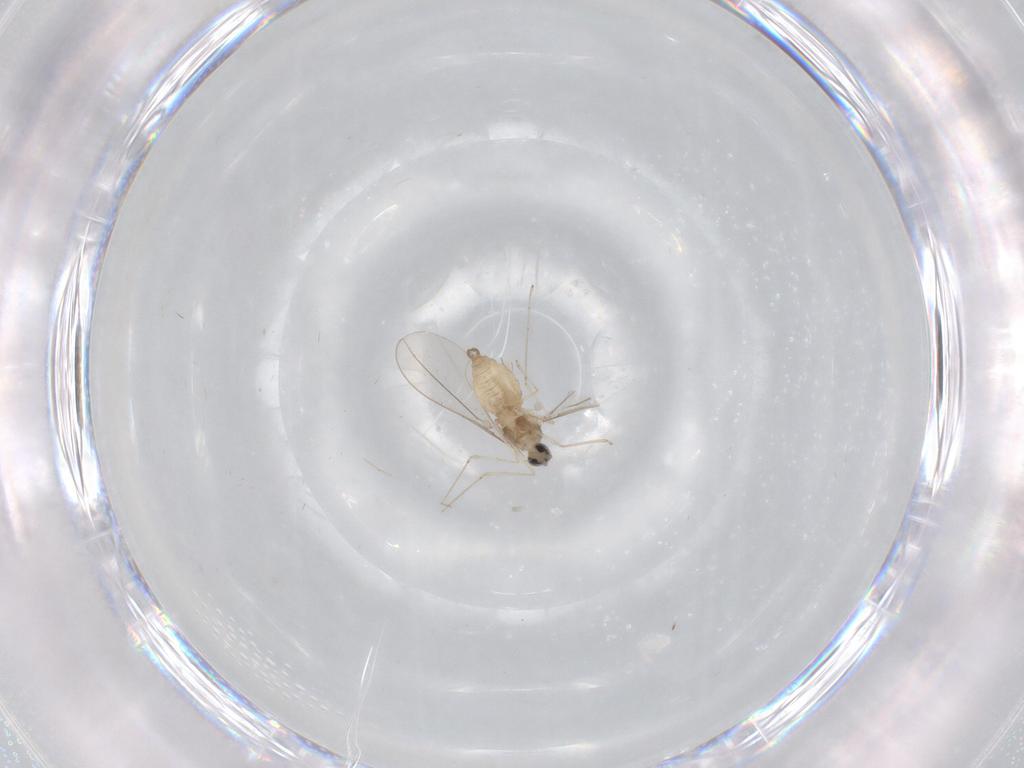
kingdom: Animalia
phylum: Arthropoda
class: Insecta
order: Diptera
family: Cecidomyiidae
